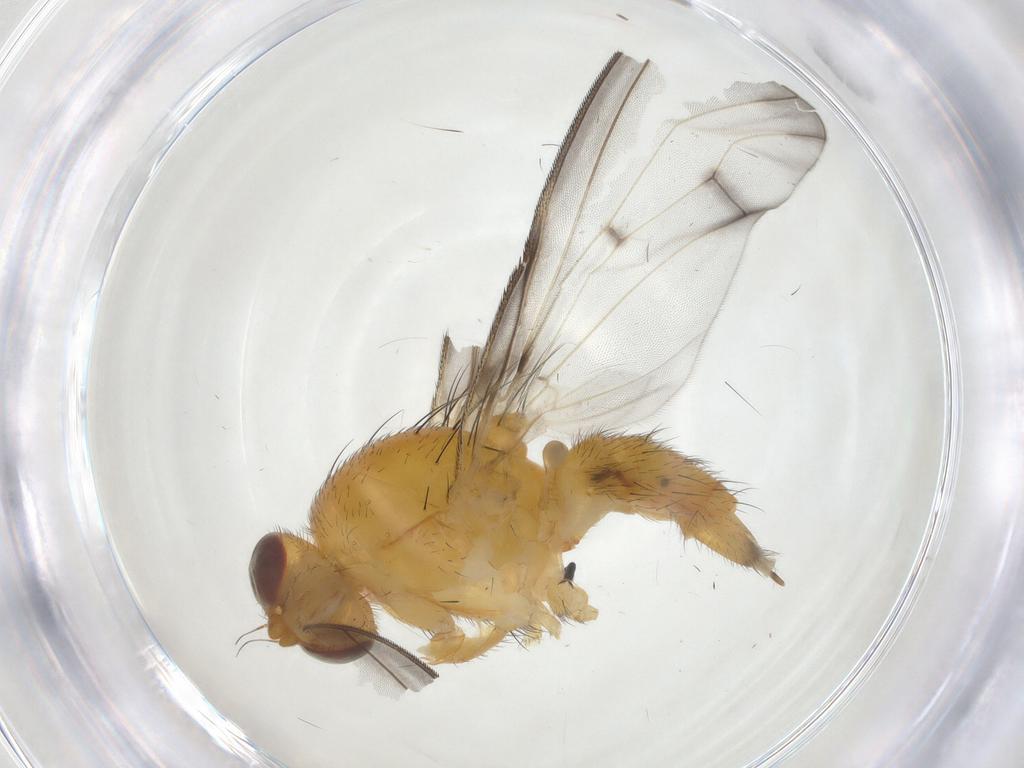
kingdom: Animalia
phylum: Arthropoda
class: Insecta
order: Diptera
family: Pallopteridae
